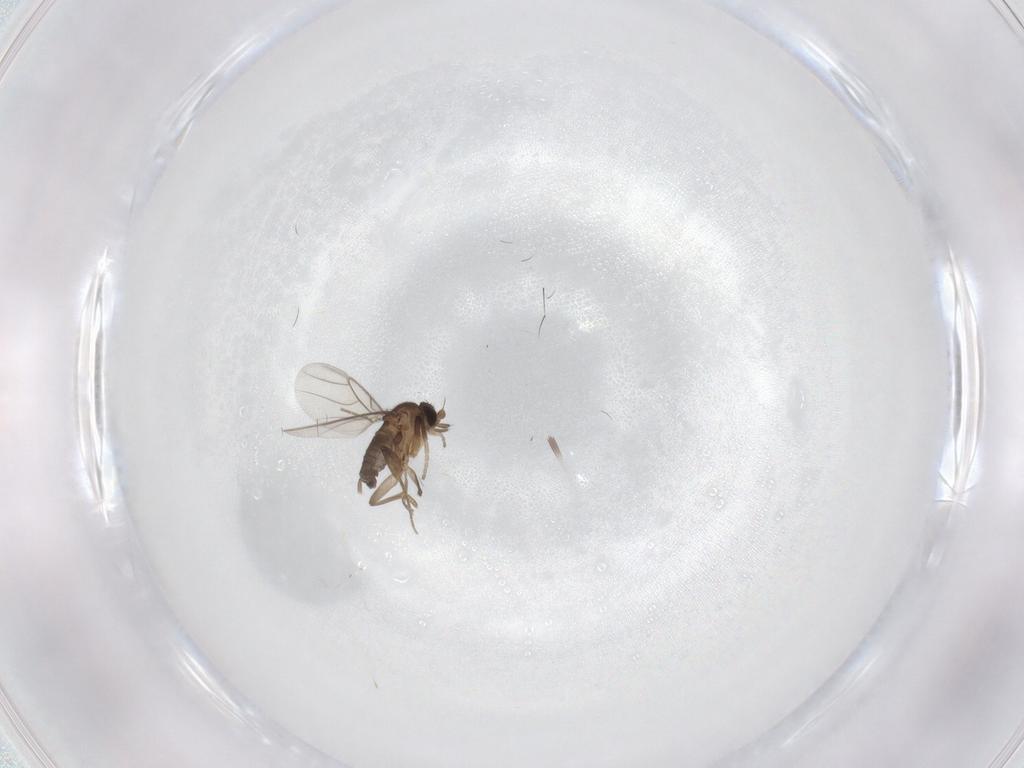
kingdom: Animalia
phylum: Arthropoda
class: Insecta
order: Diptera
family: Phoridae
